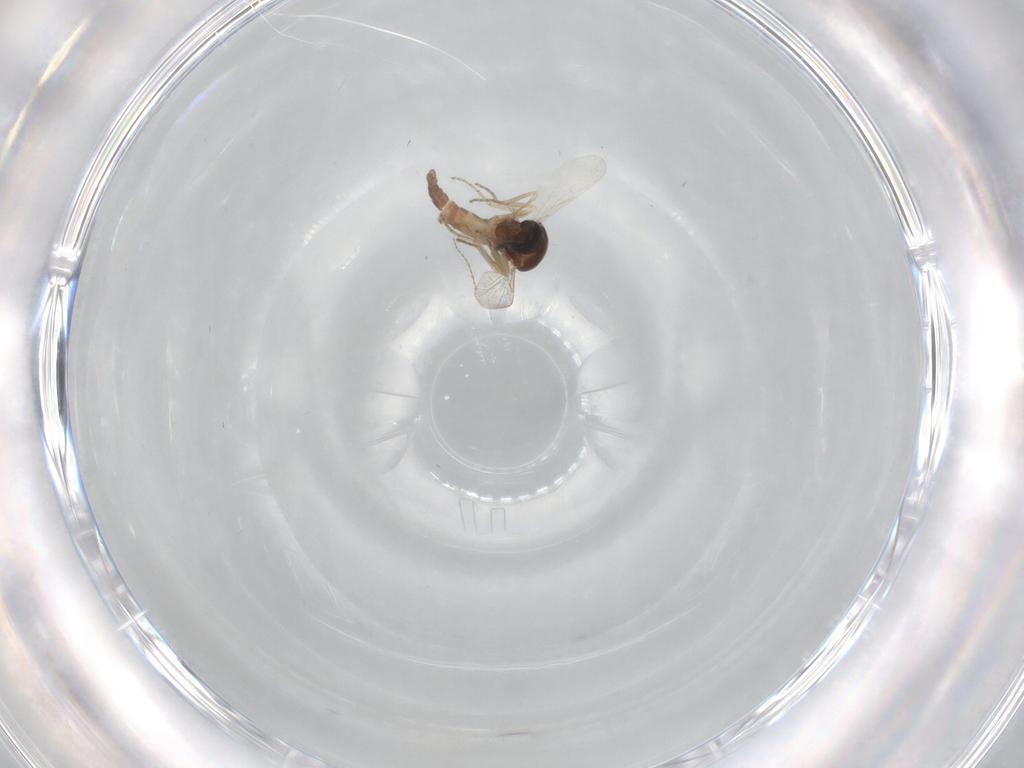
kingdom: Animalia
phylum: Arthropoda
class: Insecta
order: Diptera
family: Ceratopogonidae
